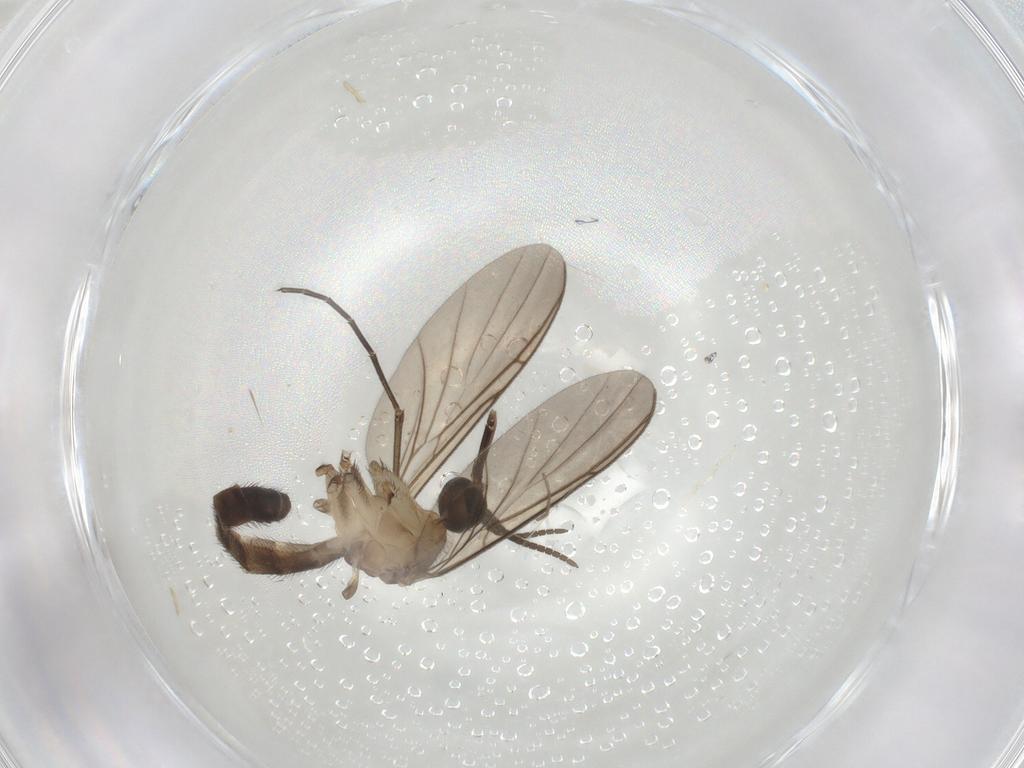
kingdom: Animalia
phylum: Arthropoda
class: Insecta
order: Diptera
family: Keroplatidae
